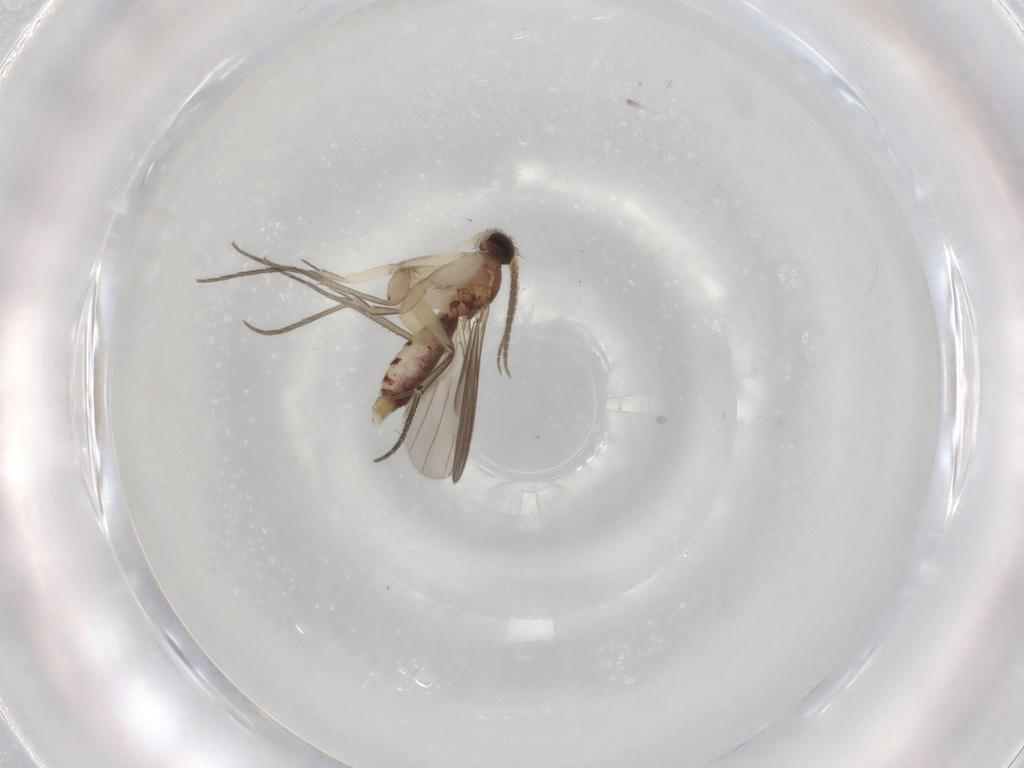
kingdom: Animalia
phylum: Arthropoda
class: Insecta
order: Diptera
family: Mycetophilidae
